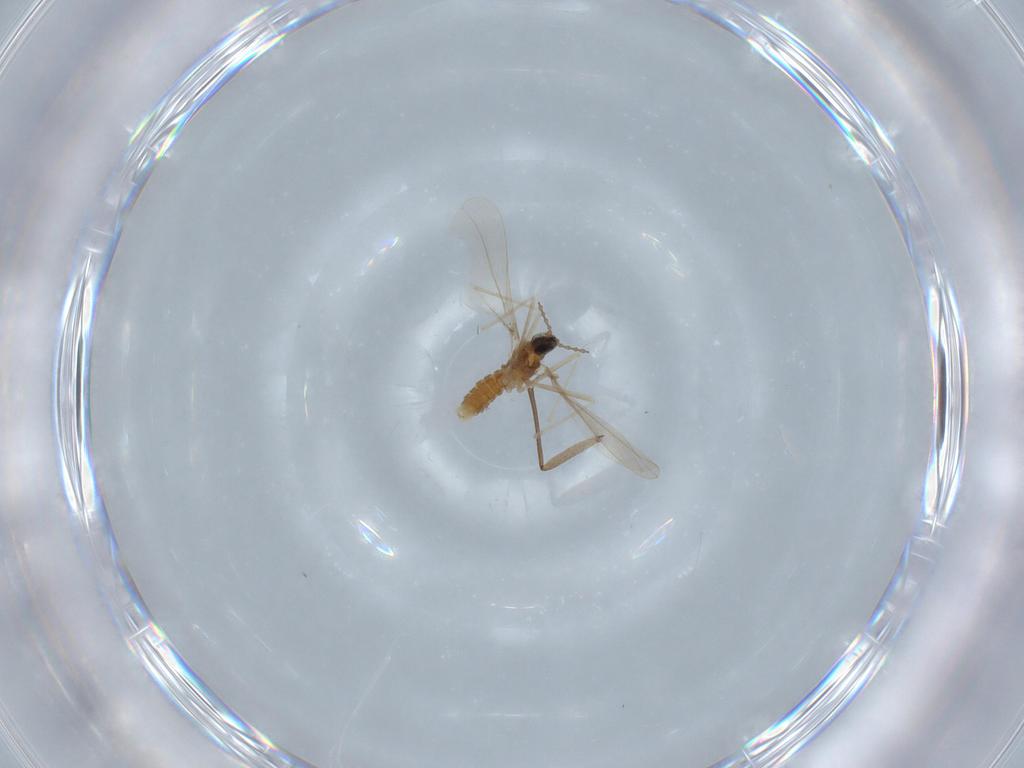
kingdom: Animalia
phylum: Arthropoda
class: Insecta
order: Diptera
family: Cecidomyiidae
